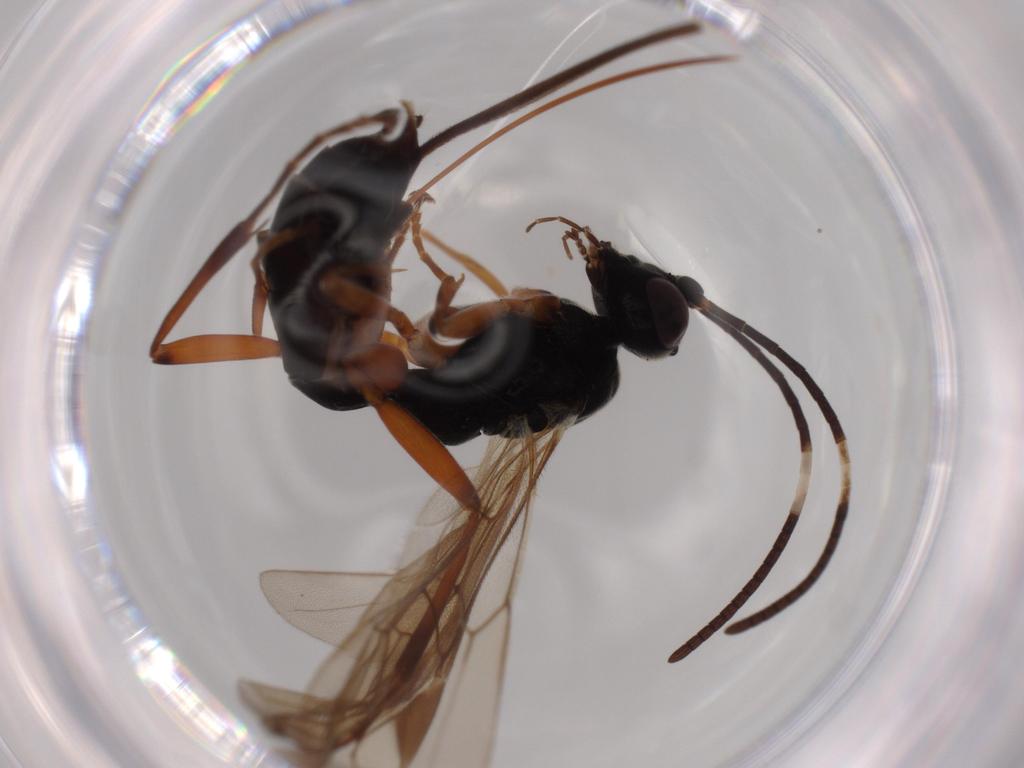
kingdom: Animalia
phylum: Arthropoda
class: Insecta
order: Hymenoptera
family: Ichneumonidae
